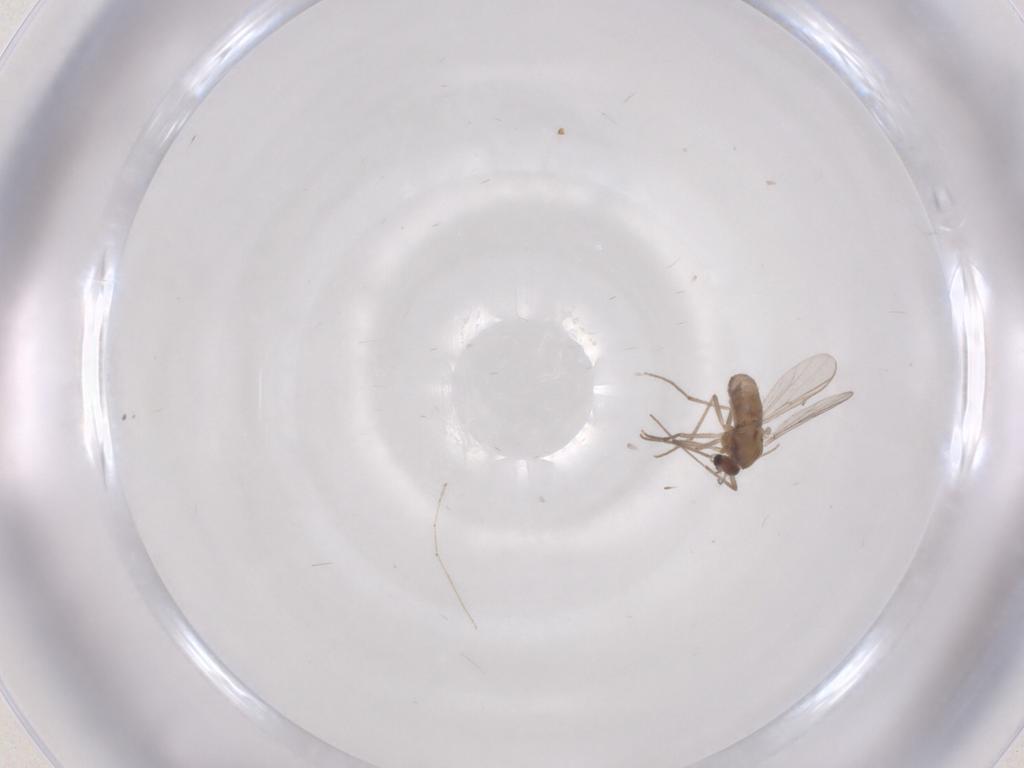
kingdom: Animalia
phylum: Arthropoda
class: Insecta
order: Diptera
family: Chironomidae
